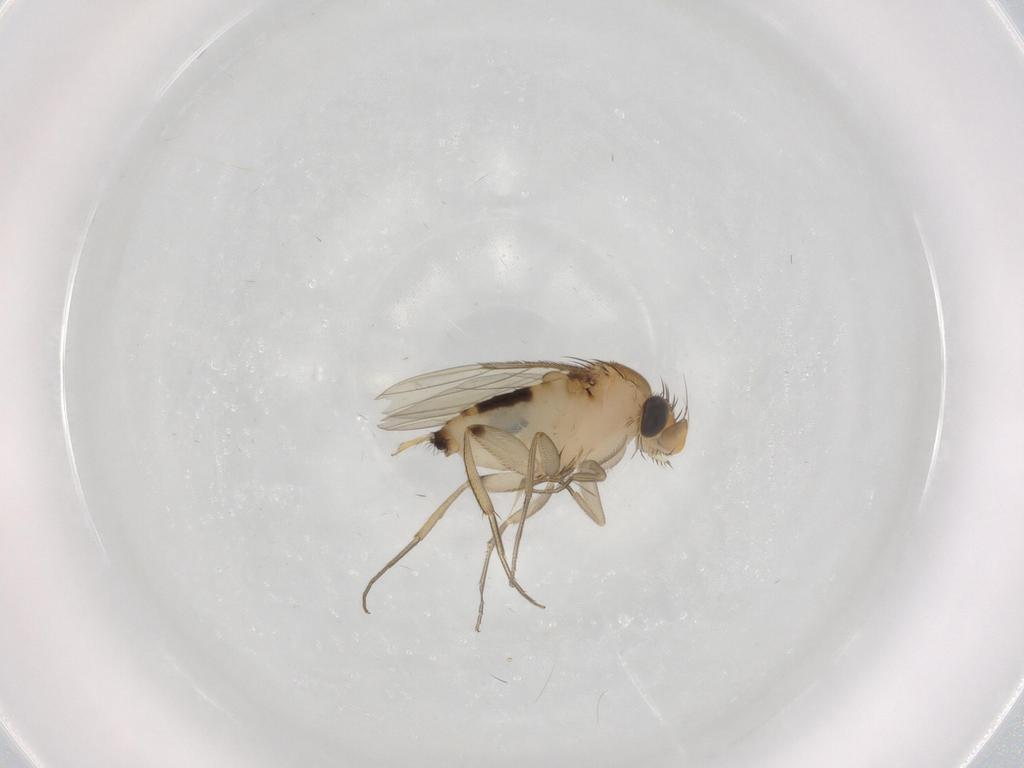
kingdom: Animalia
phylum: Arthropoda
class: Insecta
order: Diptera
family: Phoridae
